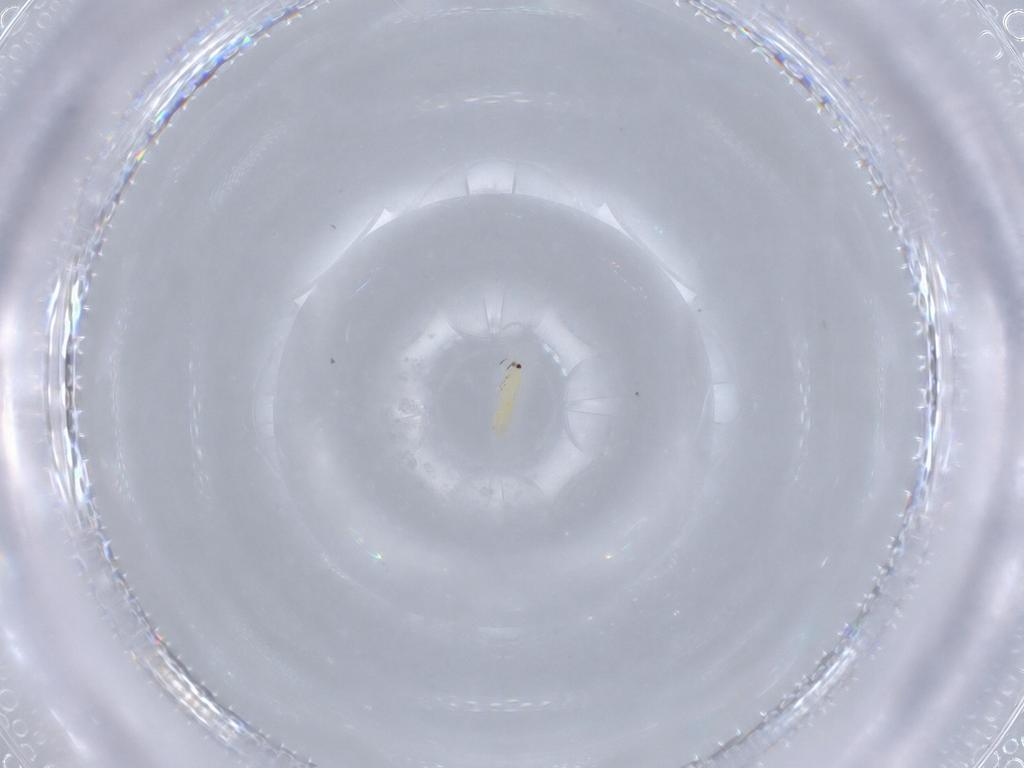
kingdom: Animalia
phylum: Arthropoda
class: Insecta
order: Thysanoptera
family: Thripidae
